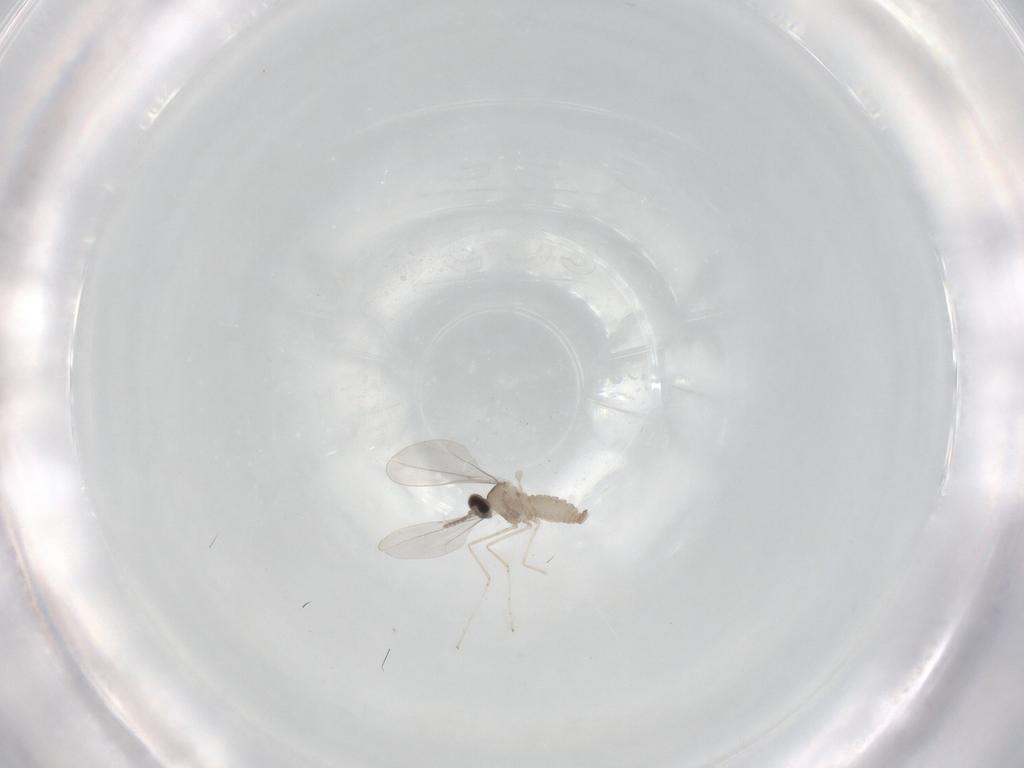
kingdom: Animalia
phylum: Arthropoda
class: Insecta
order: Diptera
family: Cecidomyiidae
